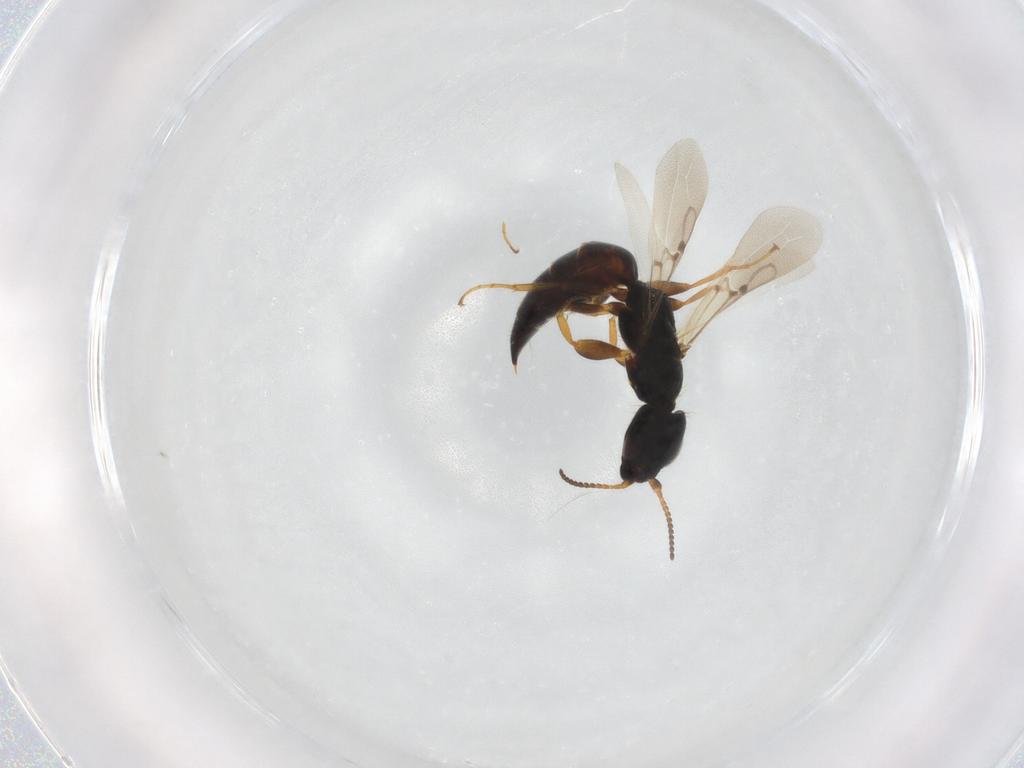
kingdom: Animalia
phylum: Arthropoda
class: Insecta
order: Hymenoptera
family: Bethylidae
